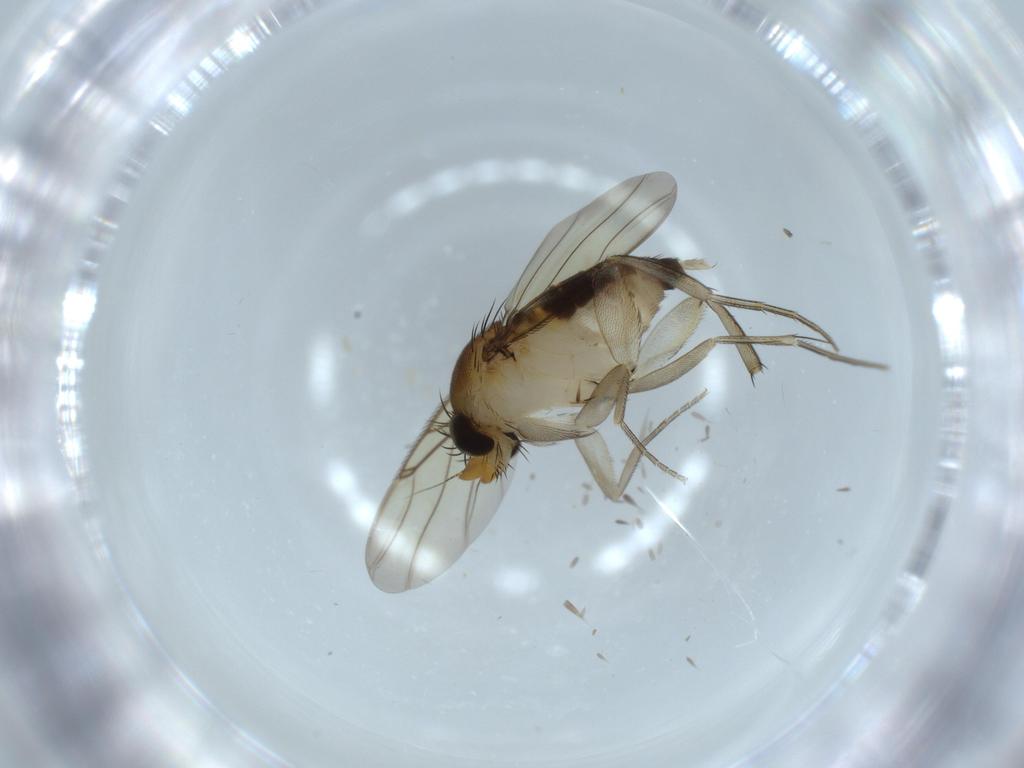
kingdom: Animalia
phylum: Arthropoda
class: Insecta
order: Diptera
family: Phoridae
